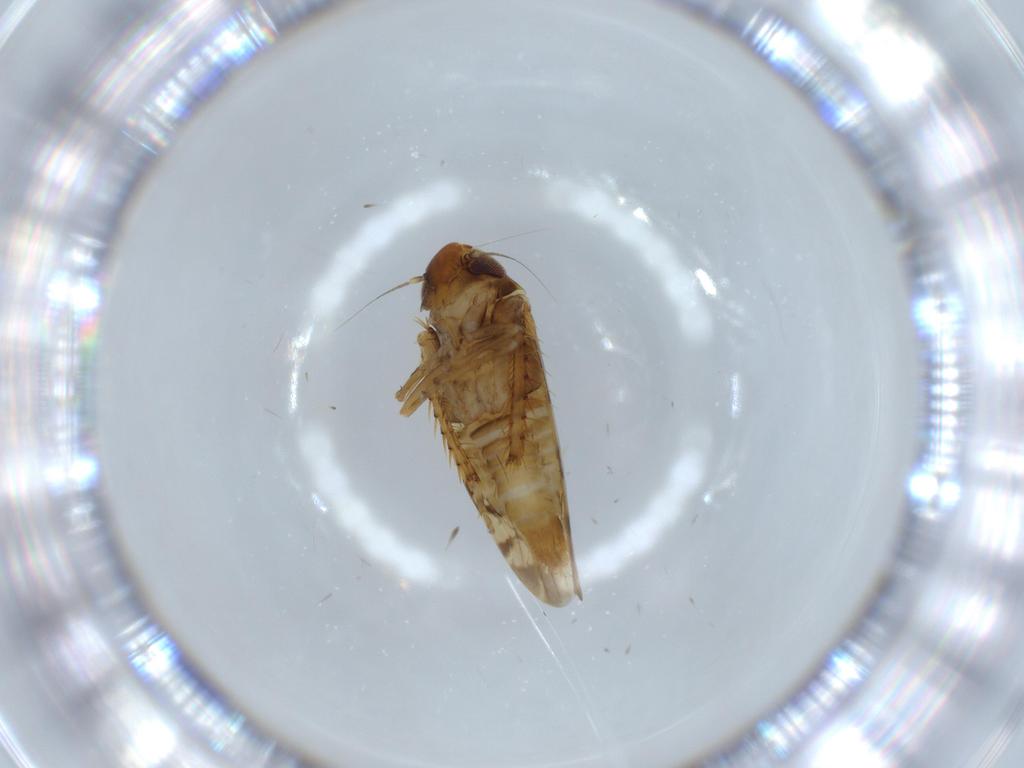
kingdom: Animalia
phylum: Arthropoda
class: Insecta
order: Hemiptera
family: Cicadellidae
